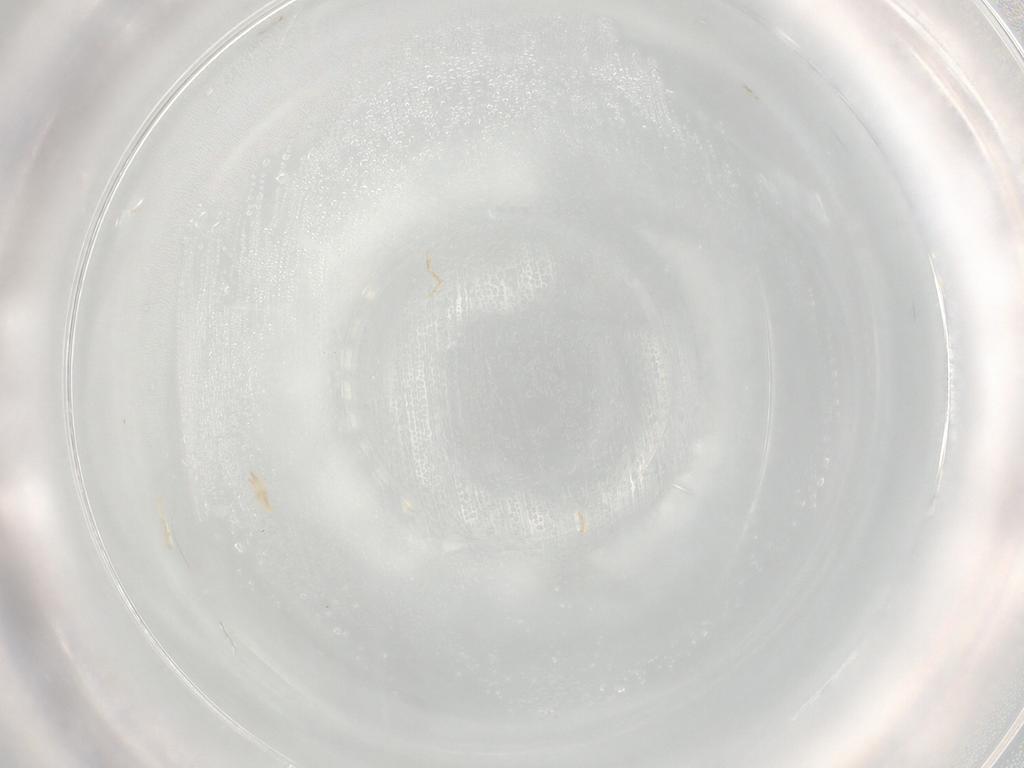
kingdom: Animalia
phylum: Arthropoda
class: Arachnida
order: Trombidiformes
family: Cunaxidae
